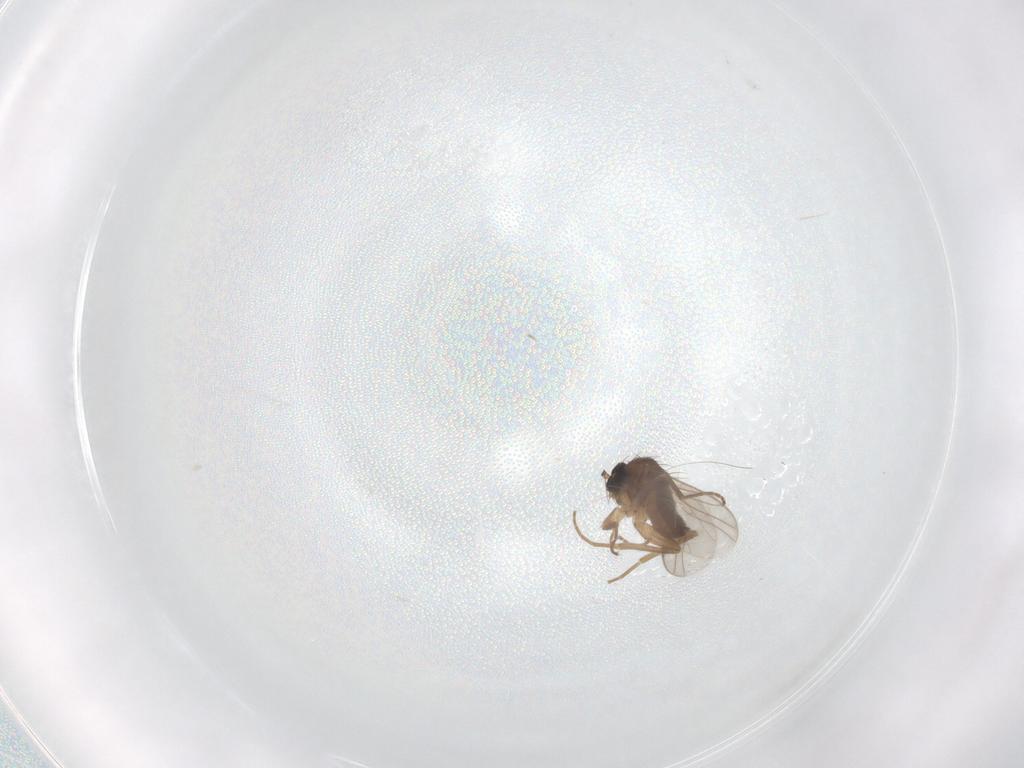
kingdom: Animalia
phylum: Arthropoda
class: Insecta
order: Diptera
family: Hybotidae
